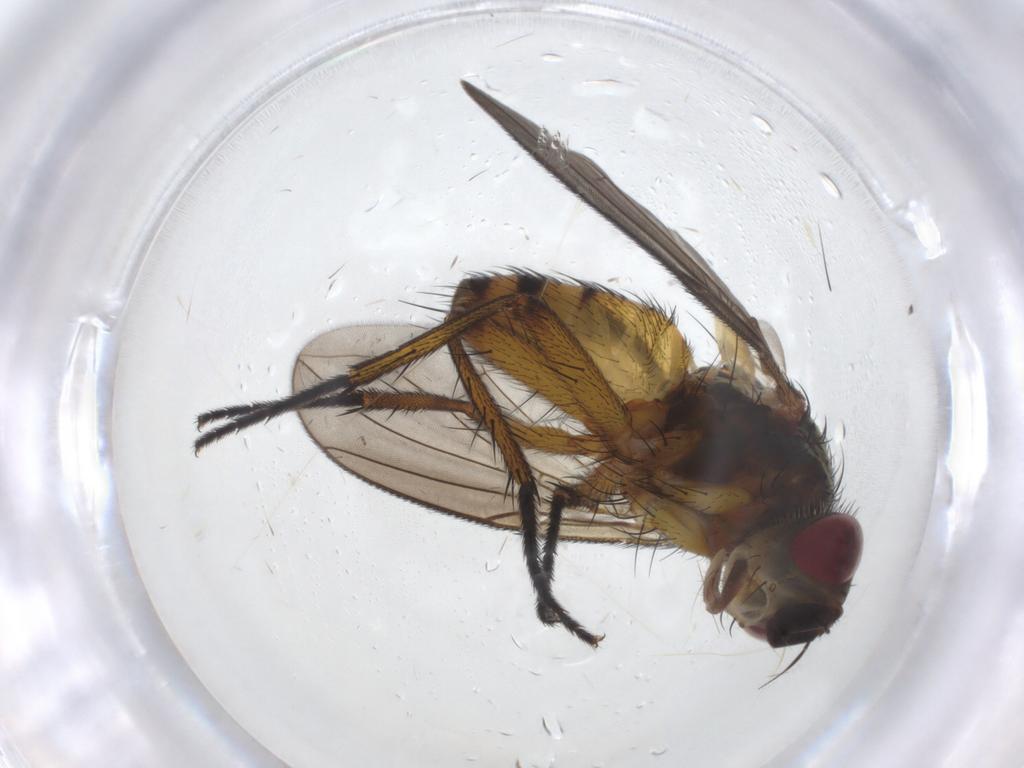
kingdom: Animalia
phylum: Arthropoda
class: Insecta
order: Diptera
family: Tachinidae
